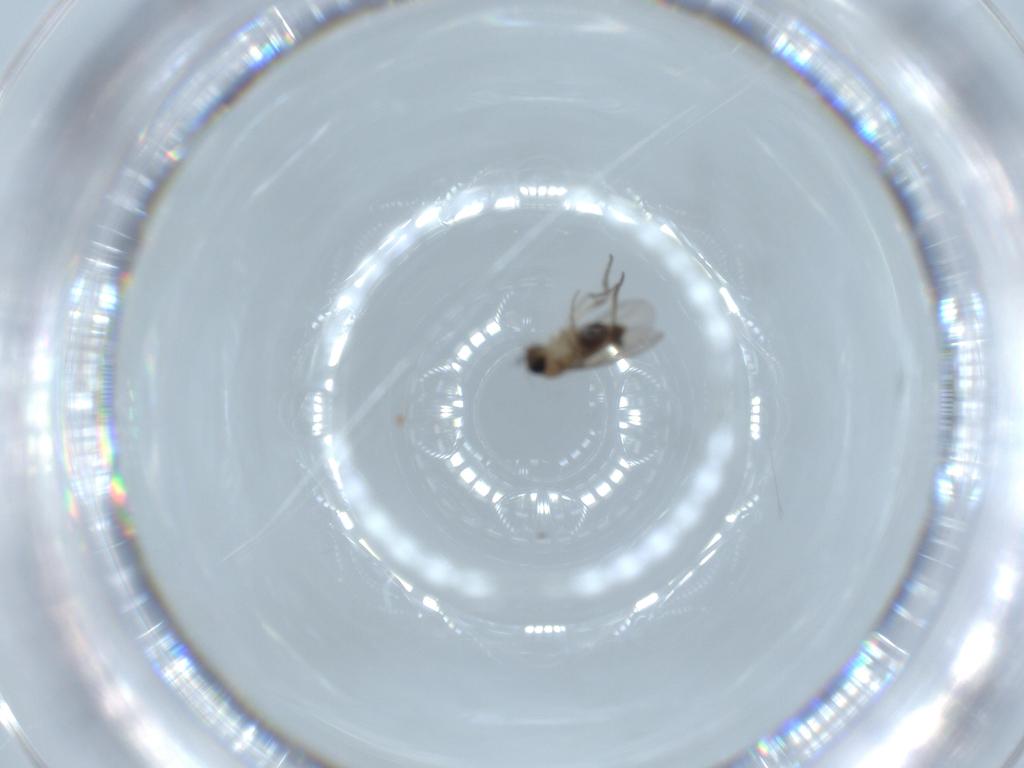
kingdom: Animalia
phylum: Arthropoda
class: Insecta
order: Diptera
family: Phoridae
